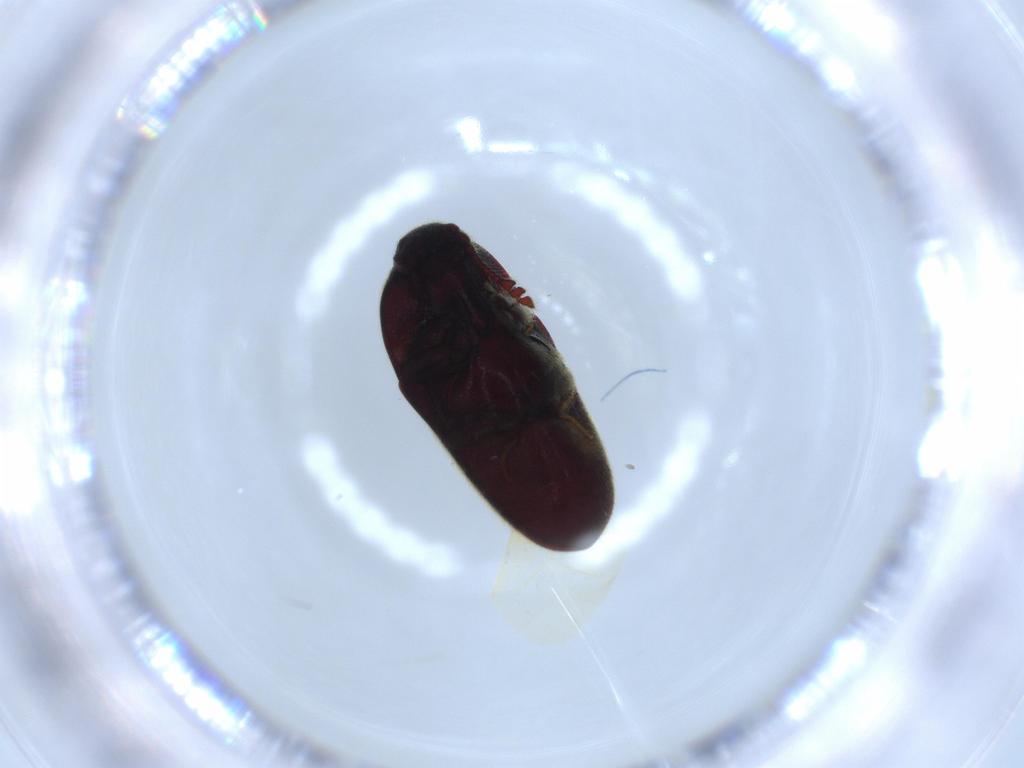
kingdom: Animalia
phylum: Arthropoda
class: Insecta
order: Coleoptera
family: Throscidae
